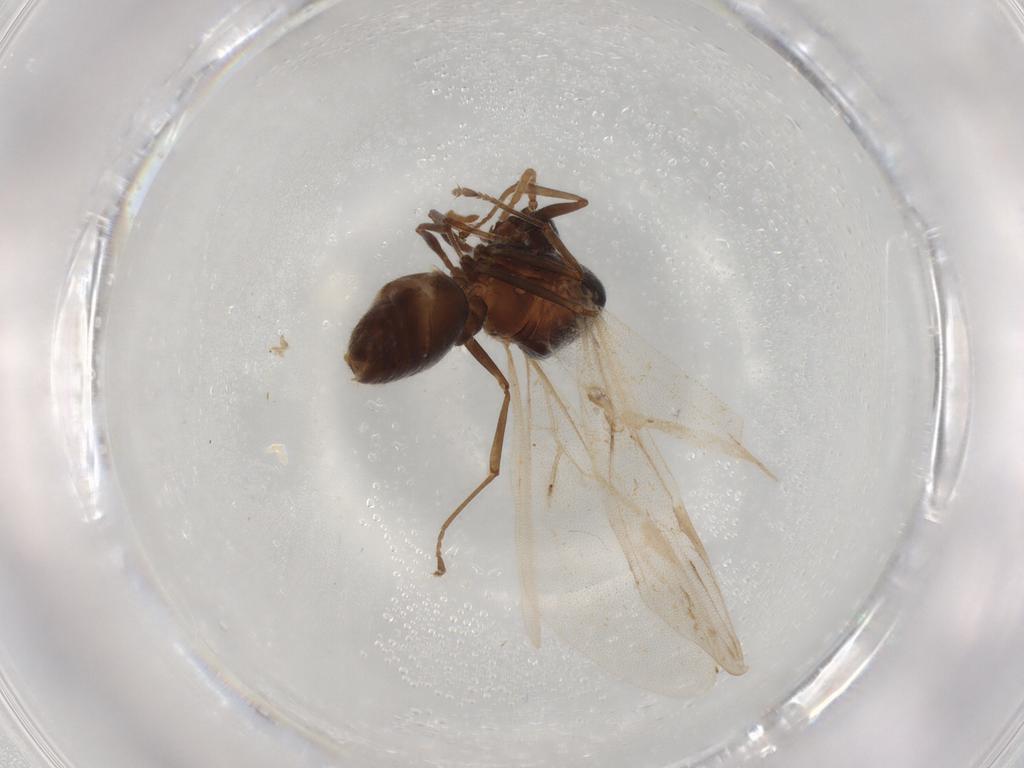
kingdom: Animalia
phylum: Arthropoda
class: Insecta
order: Hymenoptera
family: Formicidae
